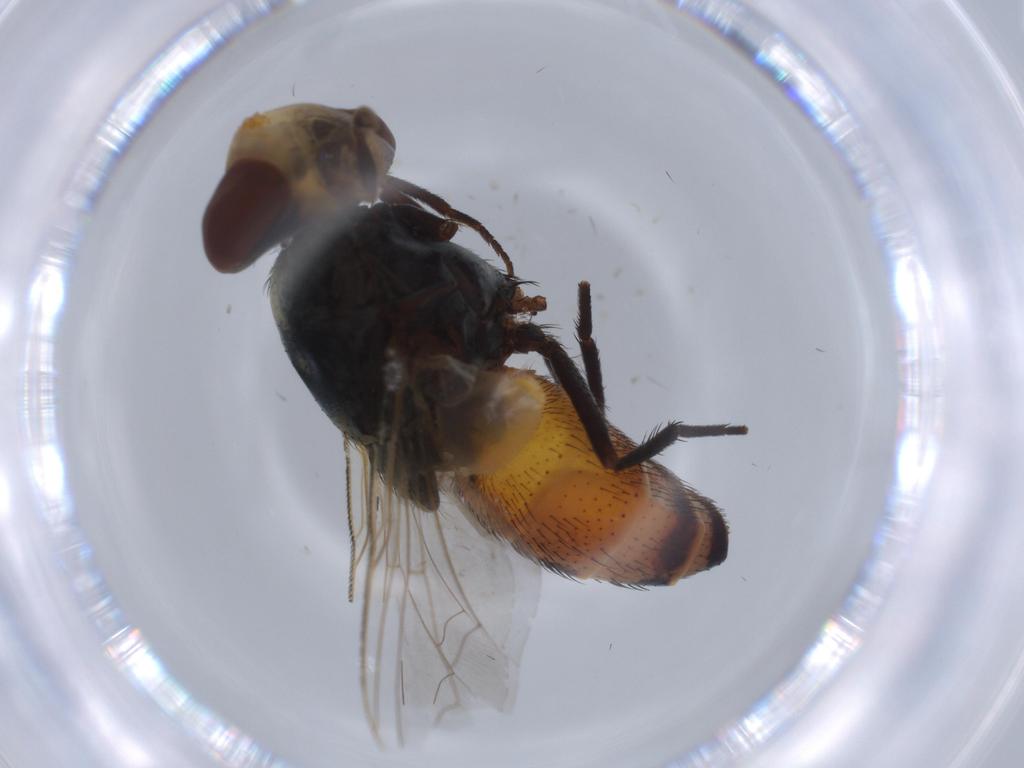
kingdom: Animalia
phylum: Arthropoda
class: Insecta
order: Diptera
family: Sarcophagidae
